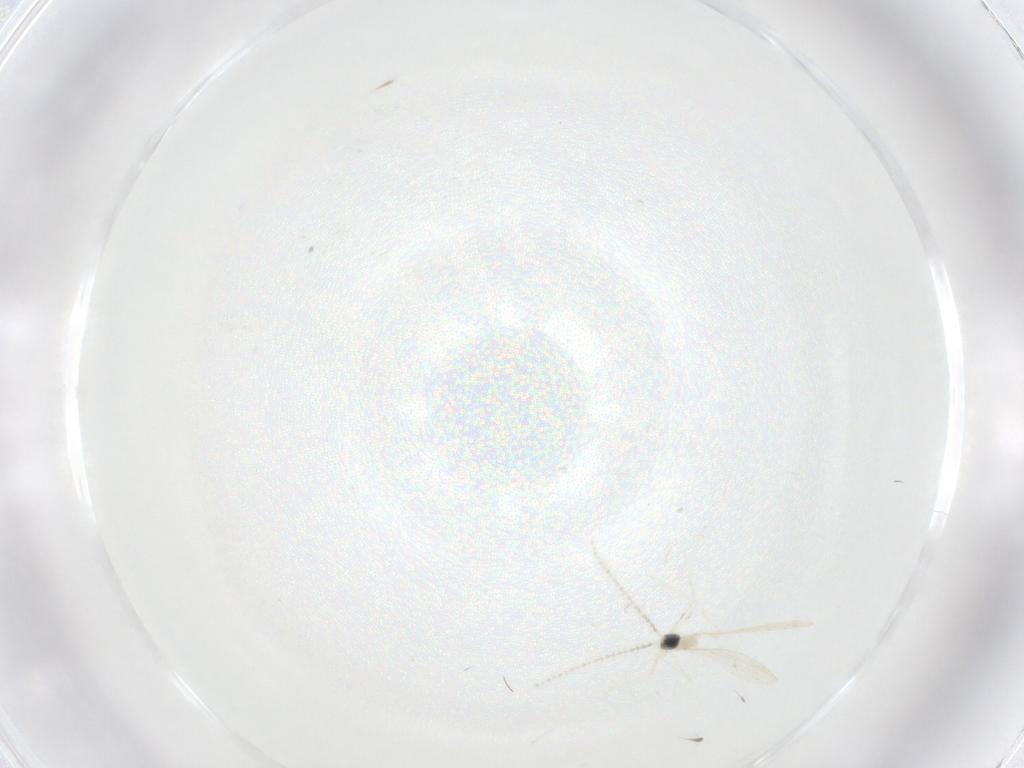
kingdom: Animalia
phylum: Arthropoda
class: Insecta
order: Diptera
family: Cecidomyiidae
